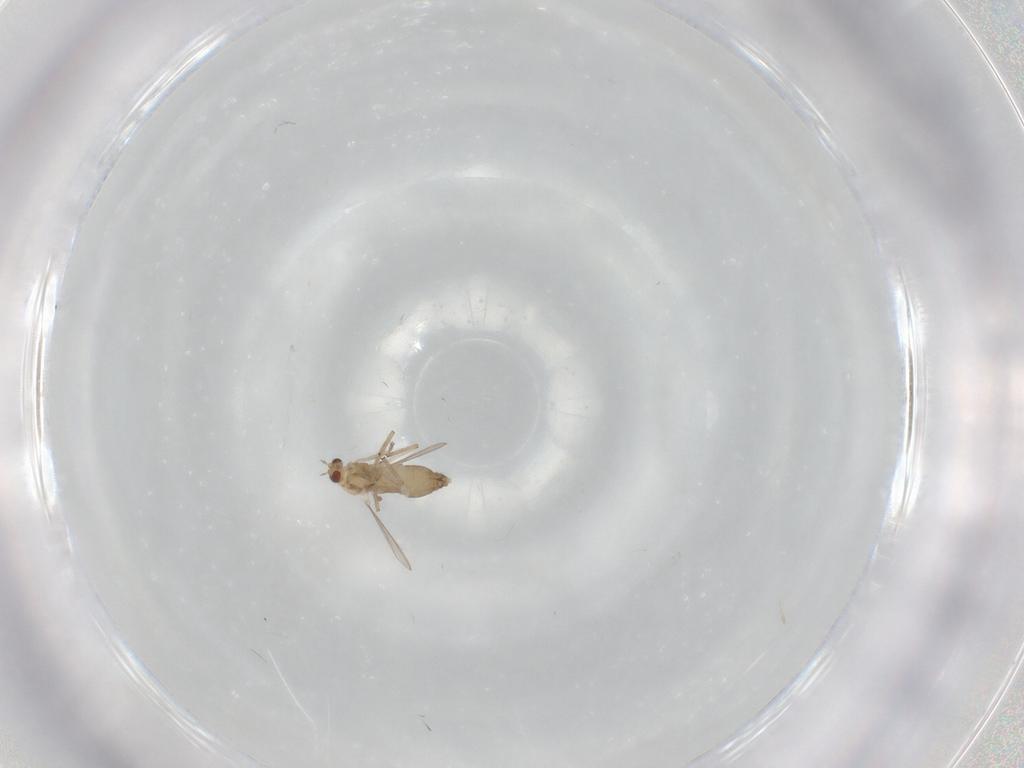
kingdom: Animalia
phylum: Arthropoda
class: Insecta
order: Diptera
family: Chironomidae
